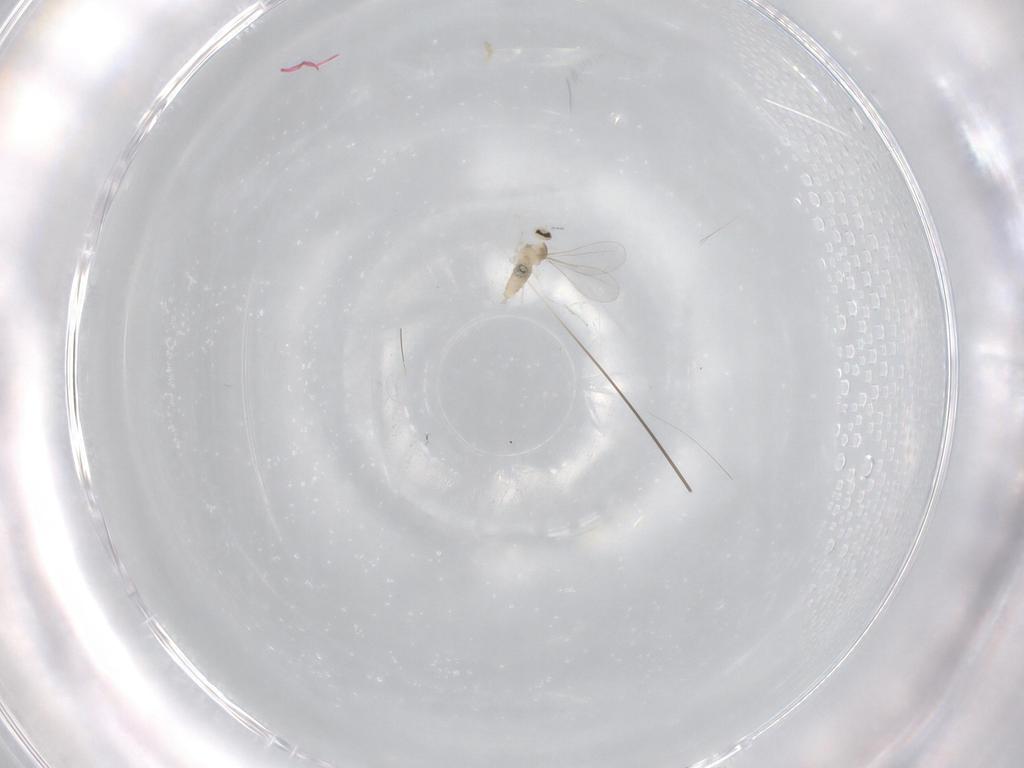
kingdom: Animalia
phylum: Arthropoda
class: Insecta
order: Diptera
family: Cecidomyiidae
